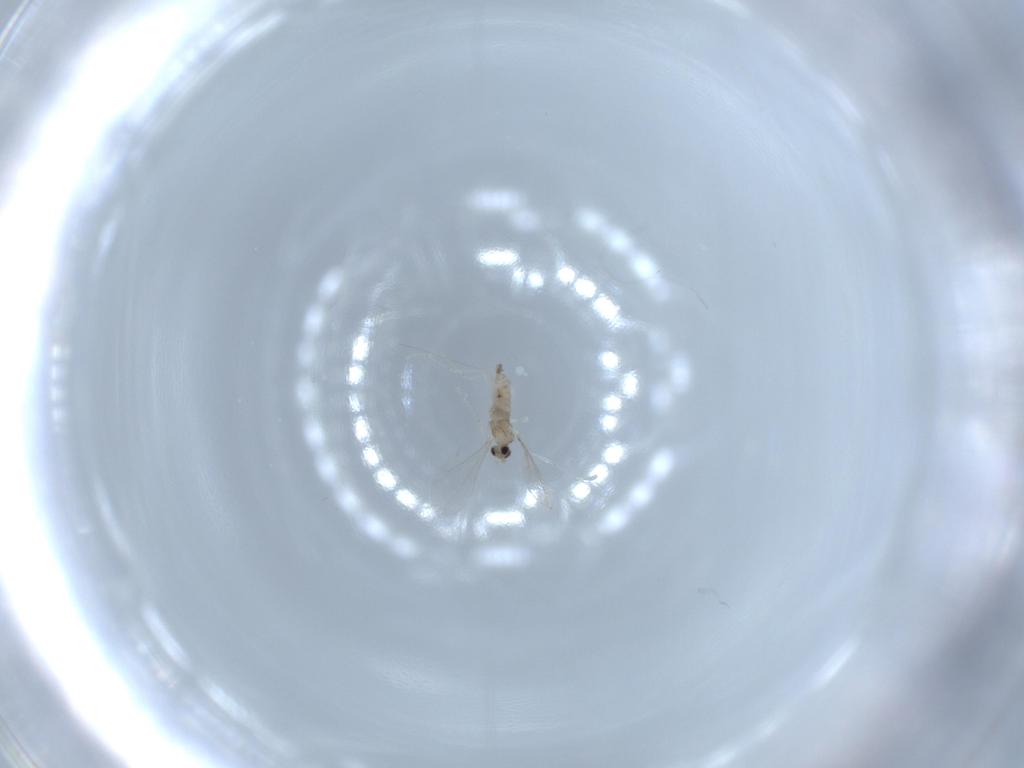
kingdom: Animalia
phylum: Arthropoda
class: Insecta
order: Diptera
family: Cecidomyiidae
